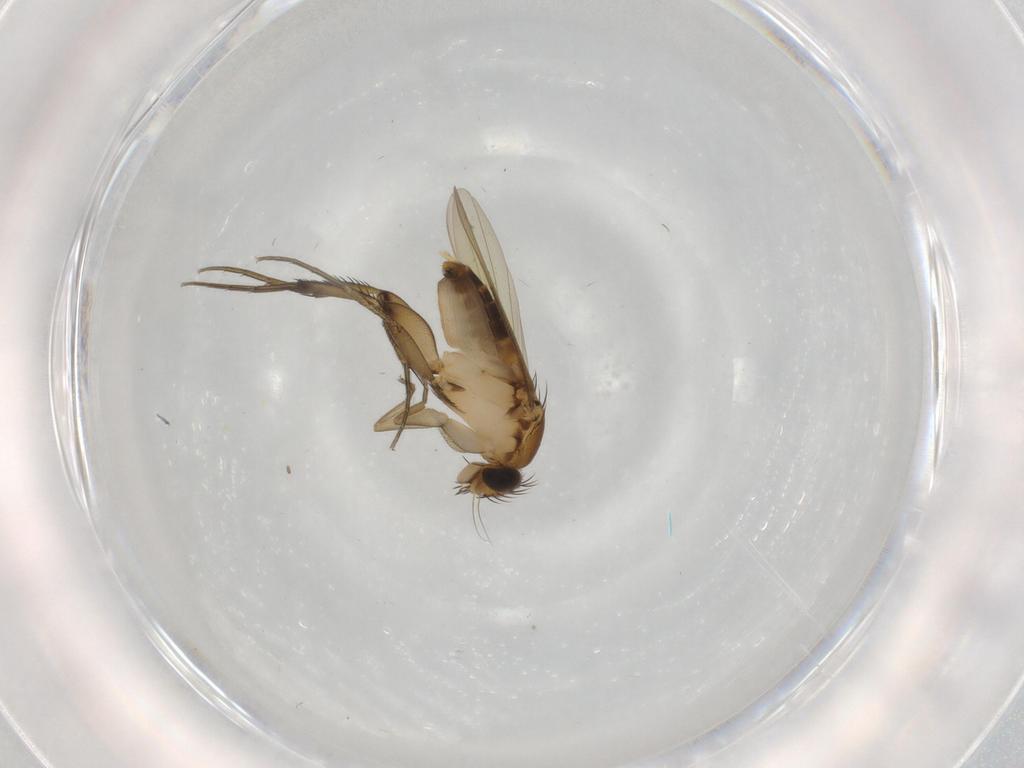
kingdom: Animalia
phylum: Arthropoda
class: Insecta
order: Diptera
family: Phoridae
